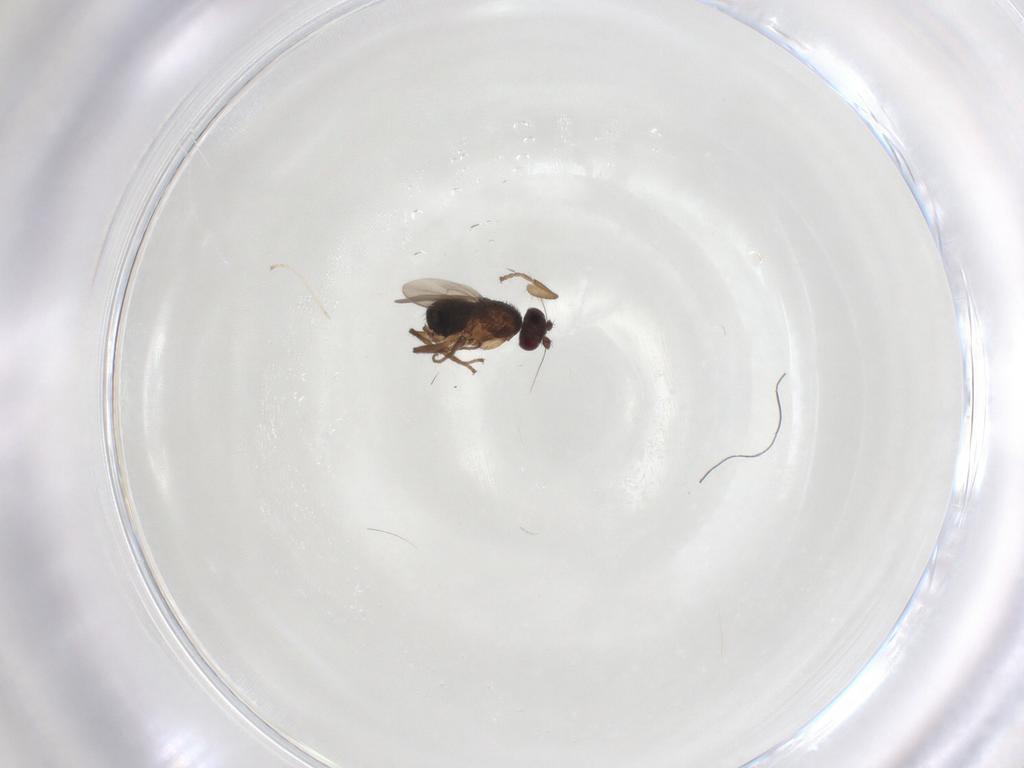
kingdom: Animalia
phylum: Arthropoda
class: Insecta
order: Diptera
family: Sphaeroceridae
